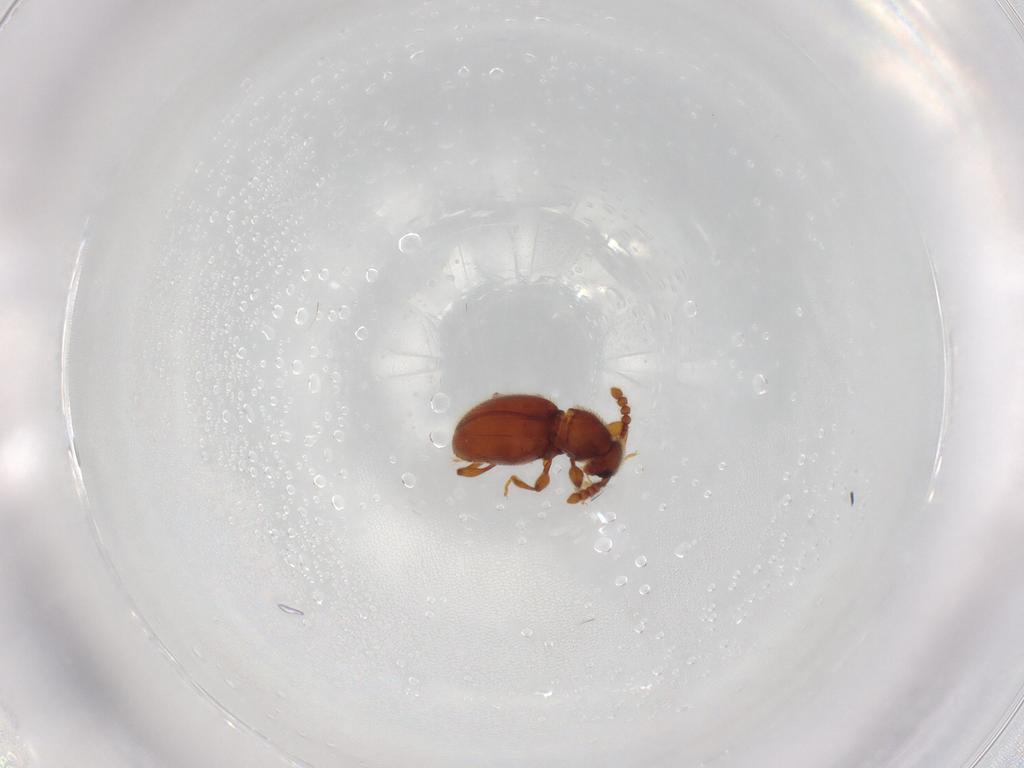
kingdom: Animalia
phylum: Arthropoda
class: Insecta
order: Coleoptera
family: Staphylinidae
